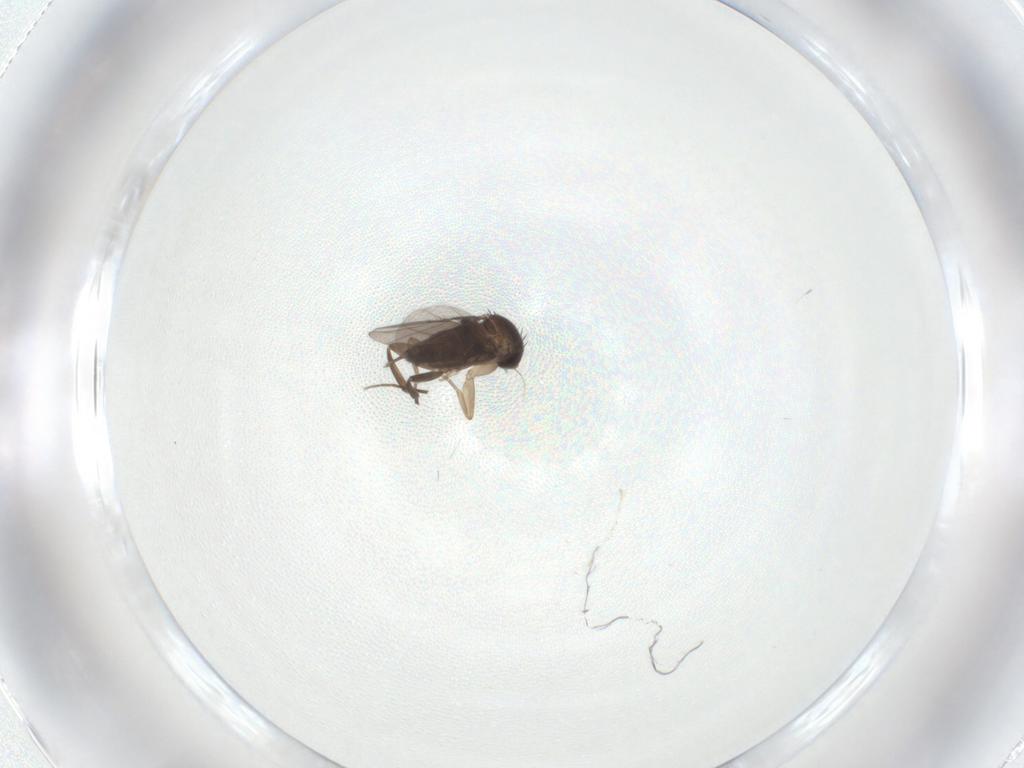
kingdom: Animalia
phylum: Arthropoda
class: Insecta
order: Diptera
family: Phoridae
